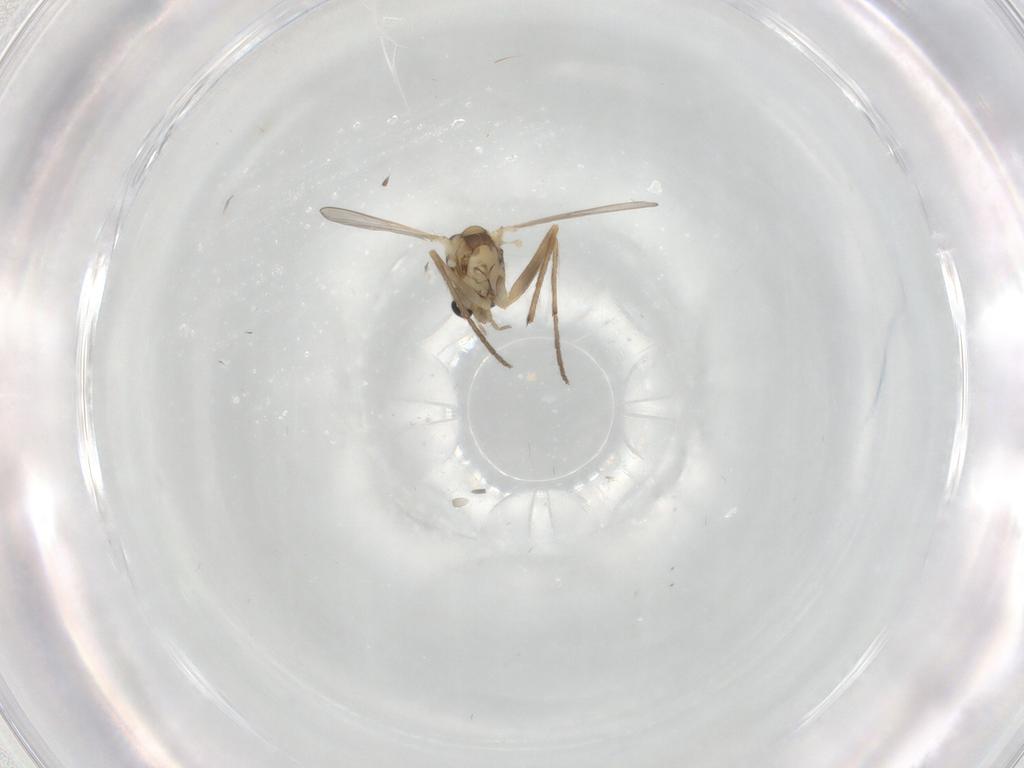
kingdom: Animalia
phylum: Arthropoda
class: Insecta
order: Diptera
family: Chironomidae
